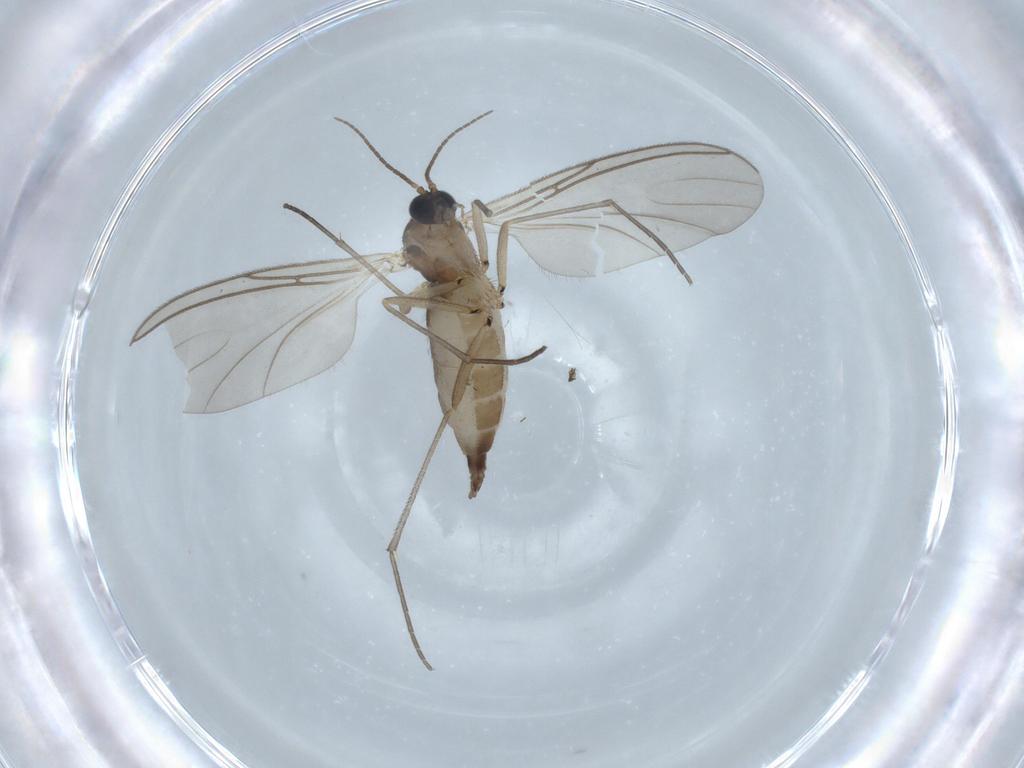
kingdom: Animalia
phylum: Arthropoda
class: Insecta
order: Diptera
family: Sciaridae
